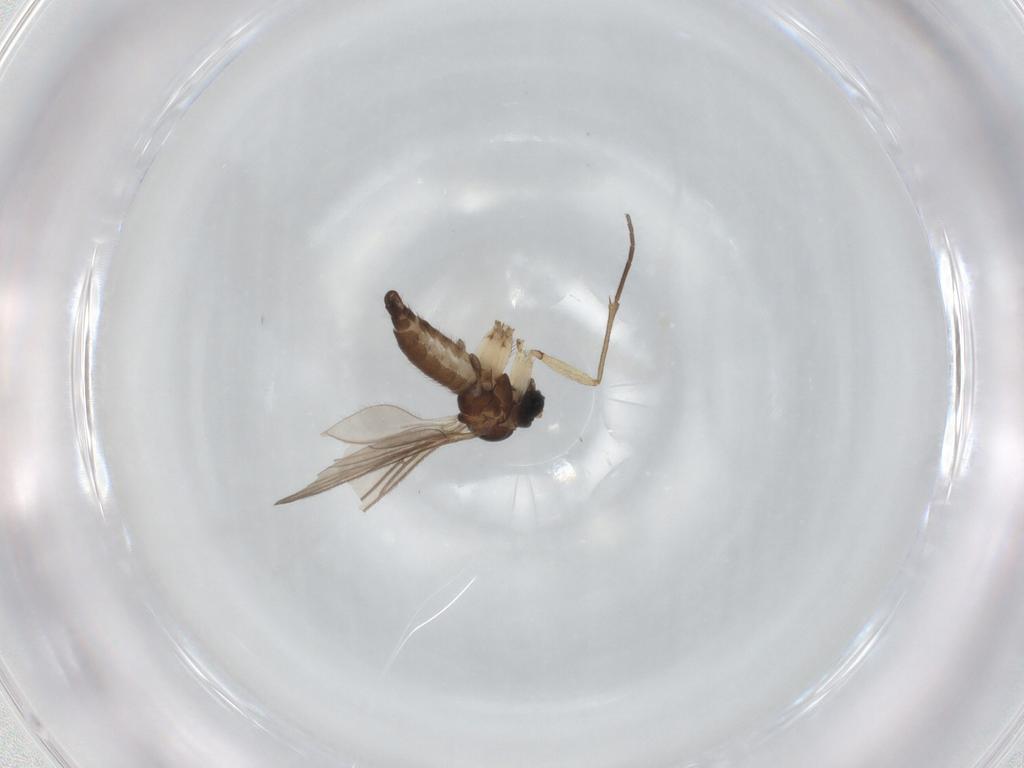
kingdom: Animalia
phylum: Arthropoda
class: Insecta
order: Diptera
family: Sciaridae
